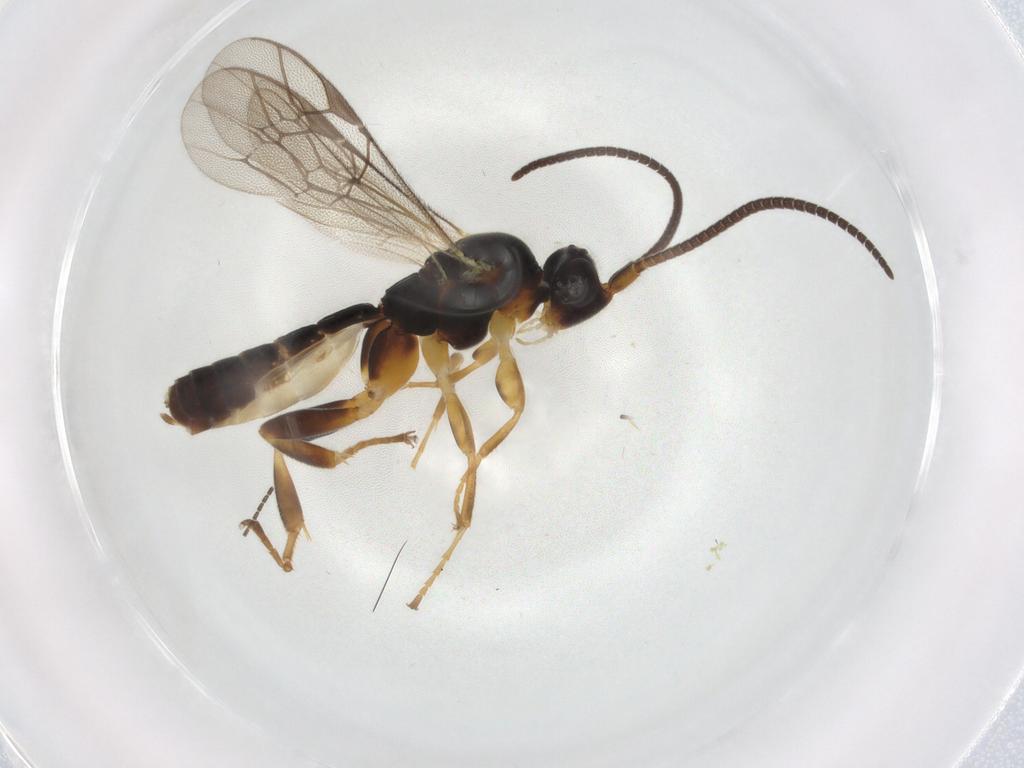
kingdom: Animalia
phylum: Arthropoda
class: Insecta
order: Hymenoptera
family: Ichneumonidae
